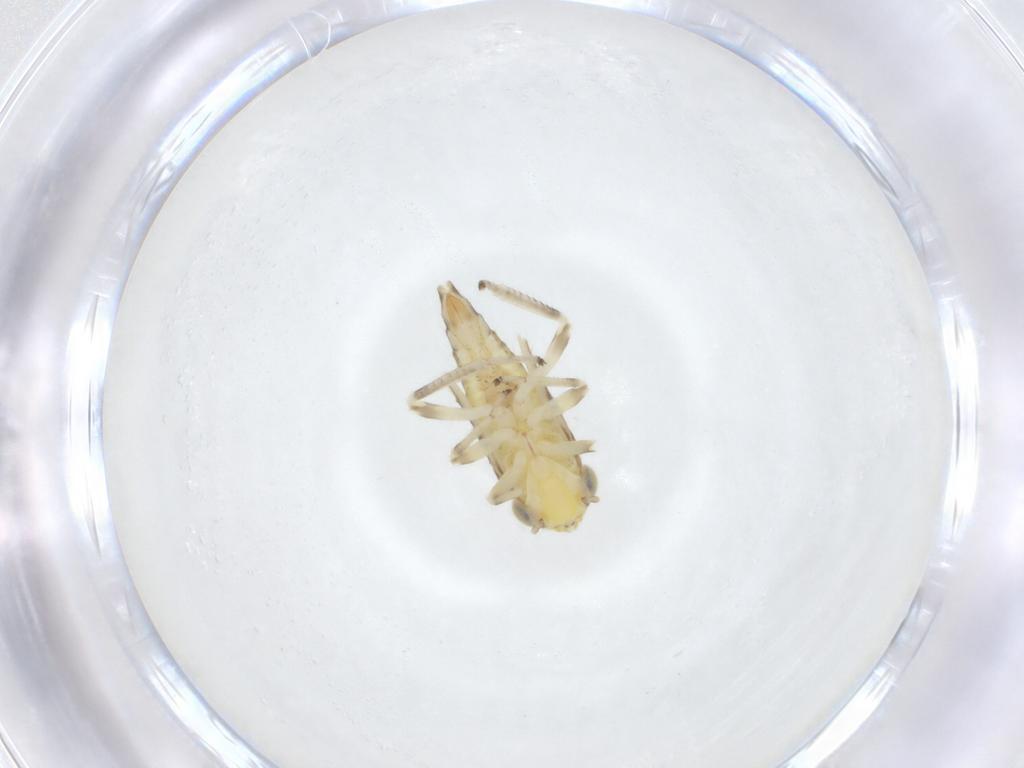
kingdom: Animalia
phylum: Arthropoda
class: Insecta
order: Hemiptera
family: Cicadellidae
